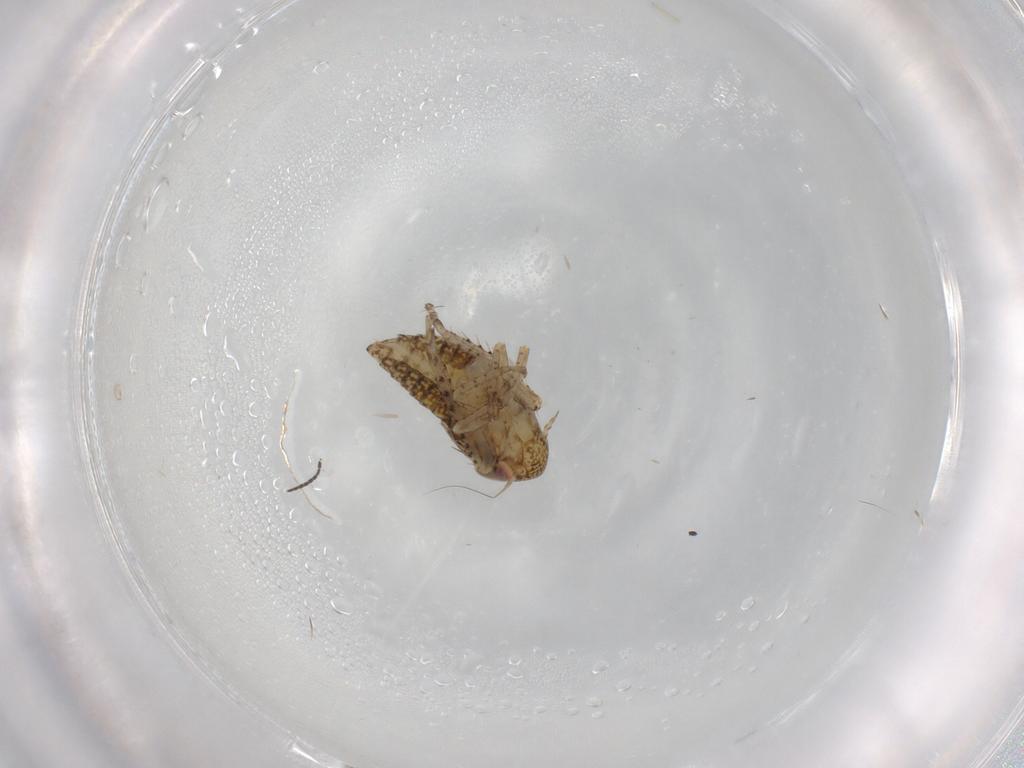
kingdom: Animalia
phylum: Arthropoda
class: Insecta
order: Hemiptera
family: Cicadellidae
